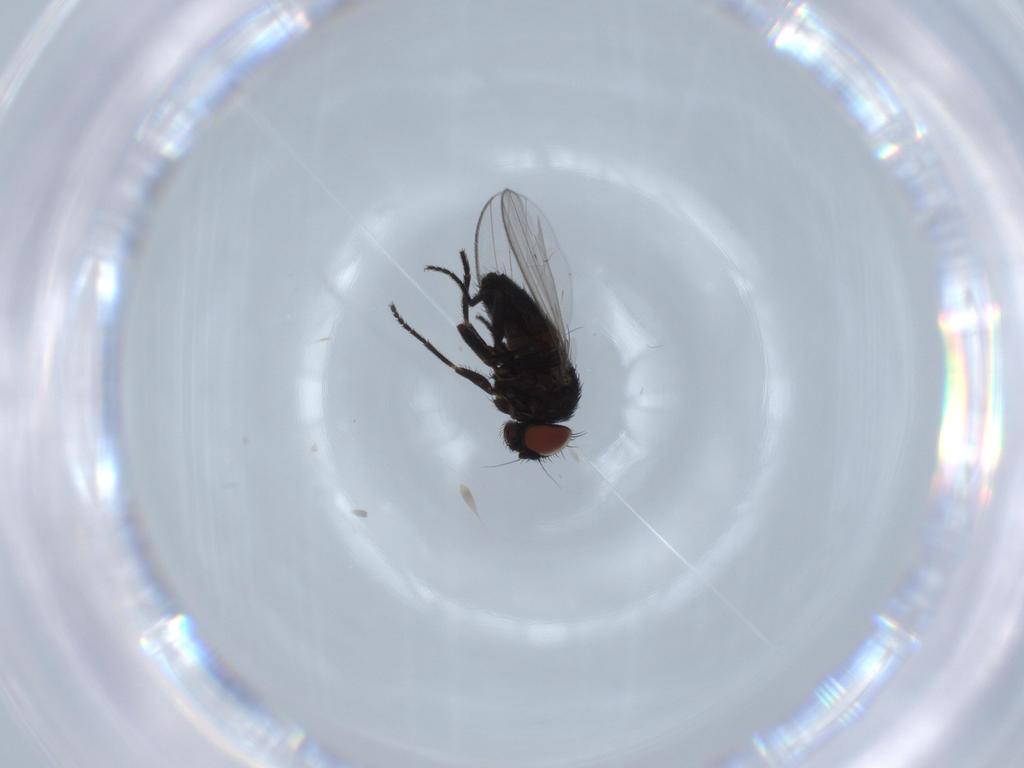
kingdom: Animalia
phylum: Arthropoda
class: Insecta
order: Diptera
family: Milichiidae
